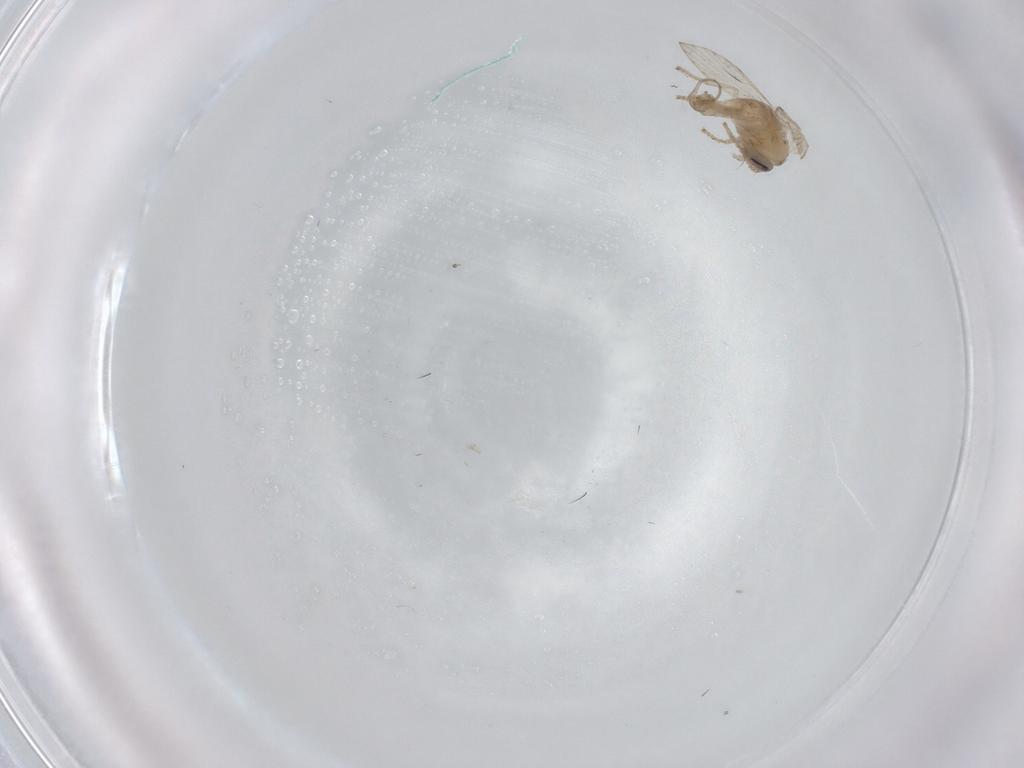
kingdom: Animalia
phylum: Arthropoda
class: Insecta
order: Diptera
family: Psychodidae
